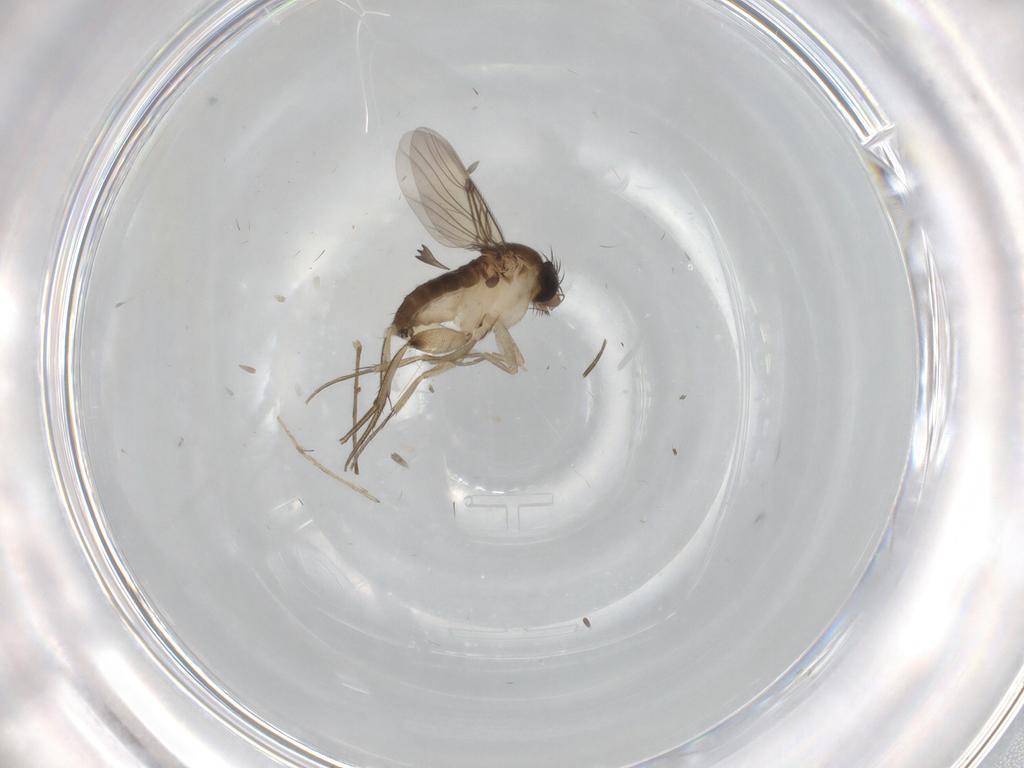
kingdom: Animalia
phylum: Arthropoda
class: Insecta
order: Diptera
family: Phoridae
